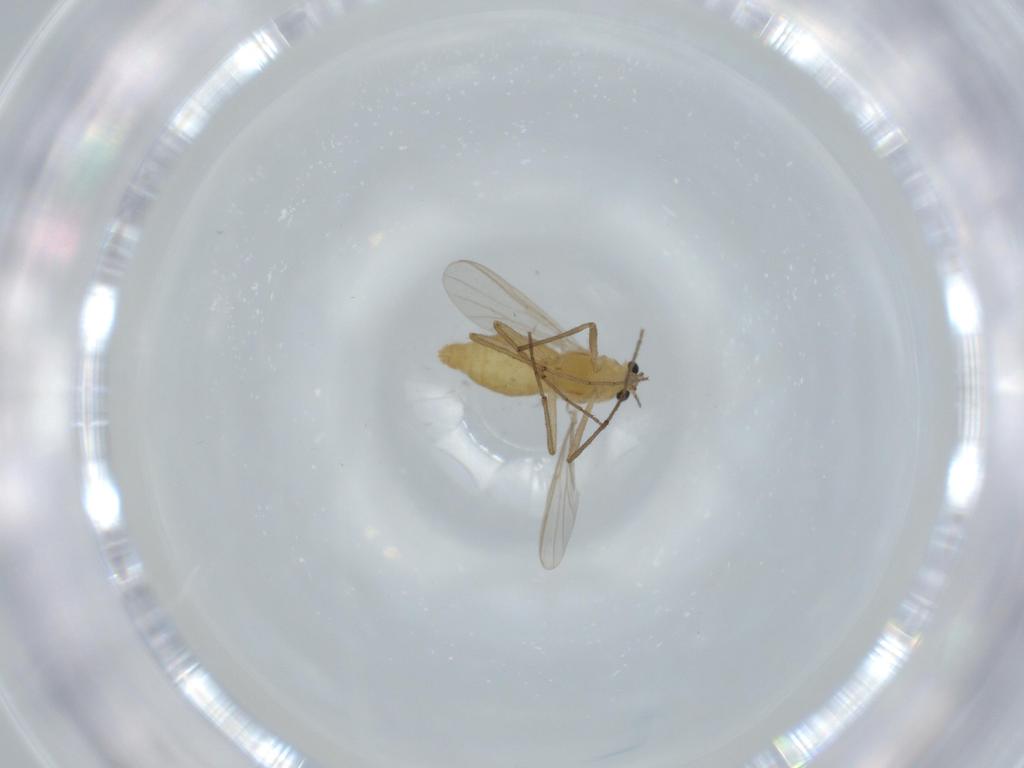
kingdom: Animalia
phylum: Arthropoda
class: Insecta
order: Diptera
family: Chironomidae
